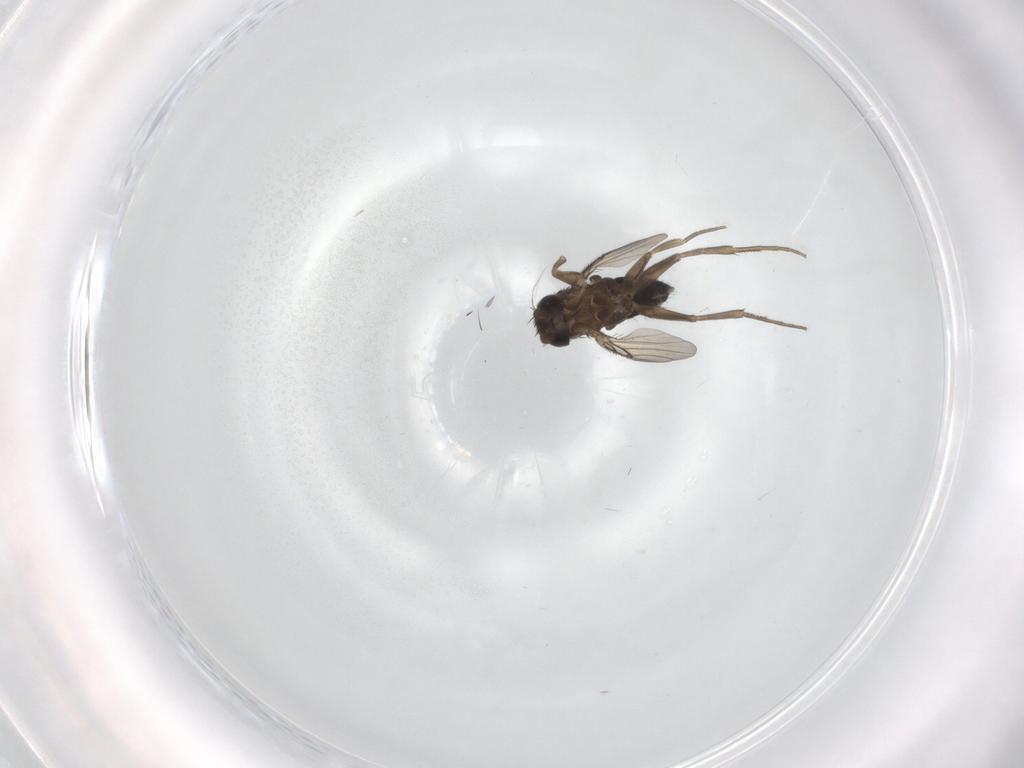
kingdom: Animalia
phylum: Arthropoda
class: Insecta
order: Diptera
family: Phoridae
